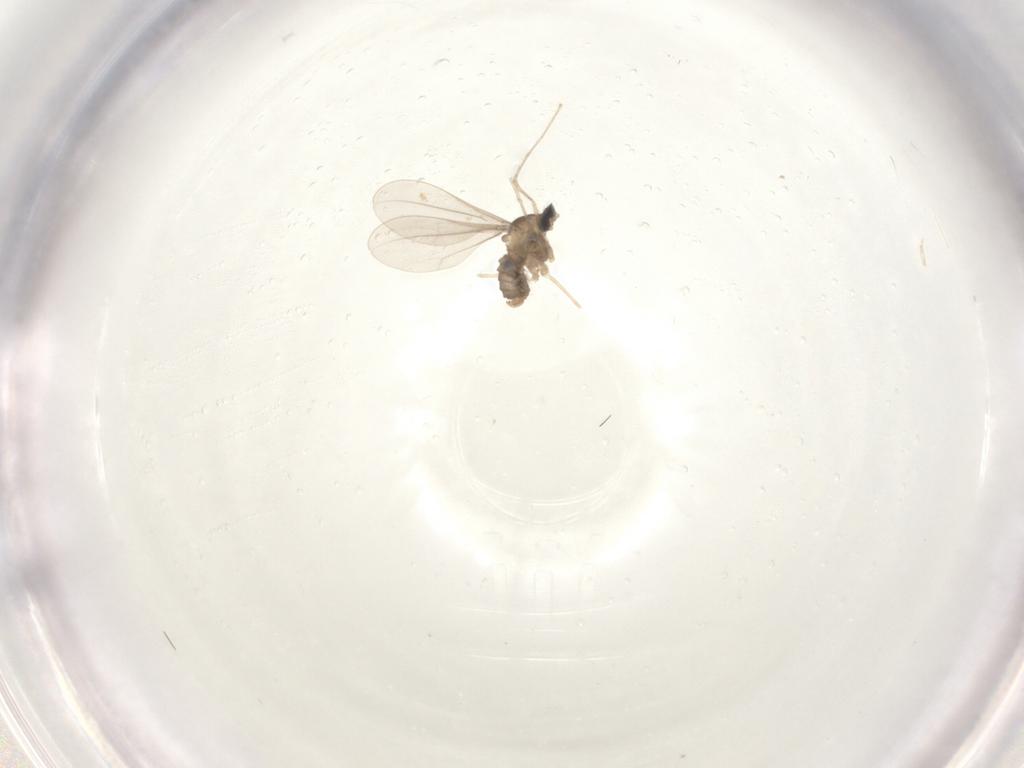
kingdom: Animalia
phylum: Arthropoda
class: Insecta
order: Diptera
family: Cecidomyiidae
